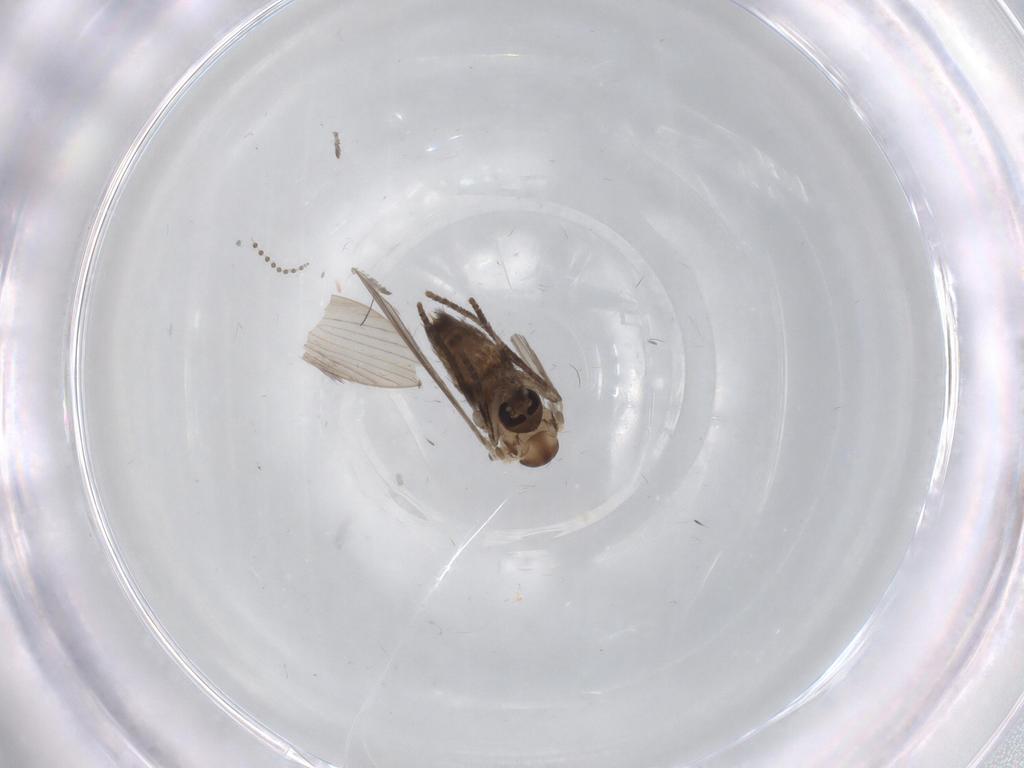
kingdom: Animalia
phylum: Arthropoda
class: Insecta
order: Diptera
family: Psychodidae
